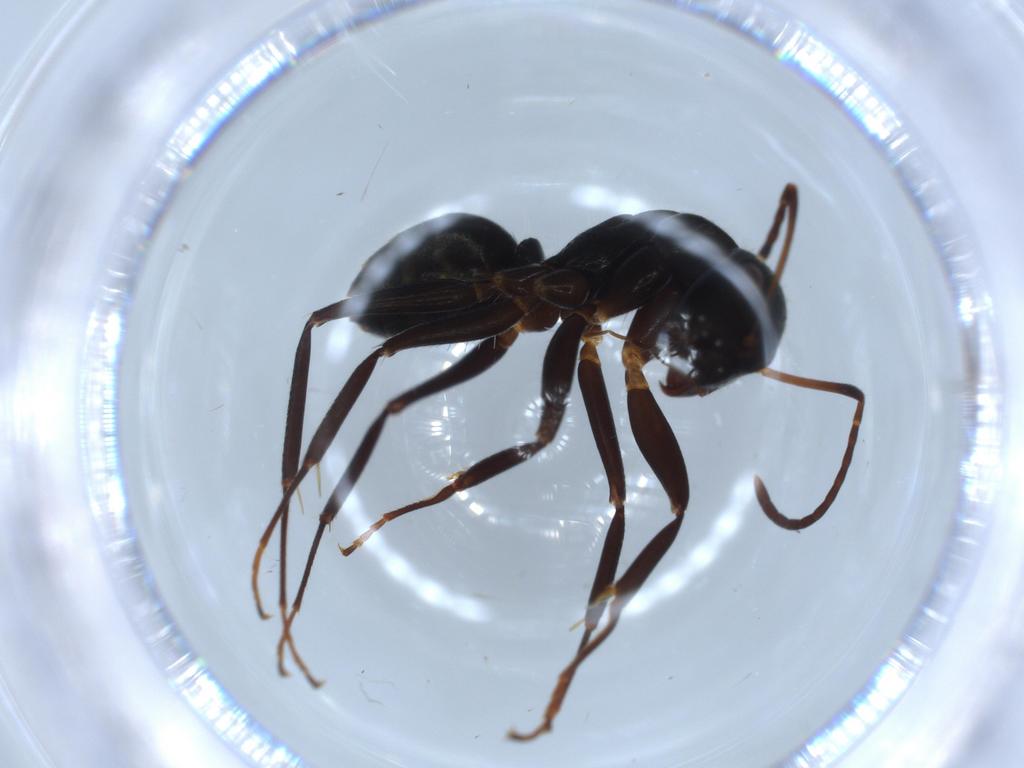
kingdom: Animalia
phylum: Arthropoda
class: Insecta
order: Hymenoptera
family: Formicidae
